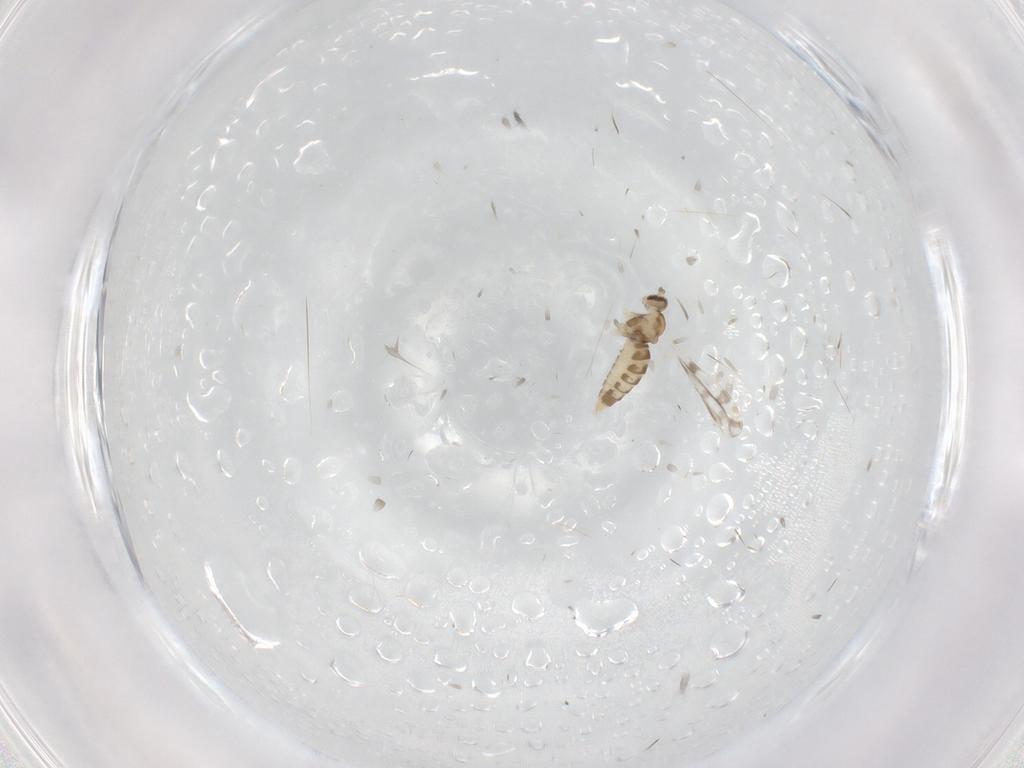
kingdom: Animalia
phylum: Arthropoda
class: Insecta
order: Diptera
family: Cecidomyiidae
